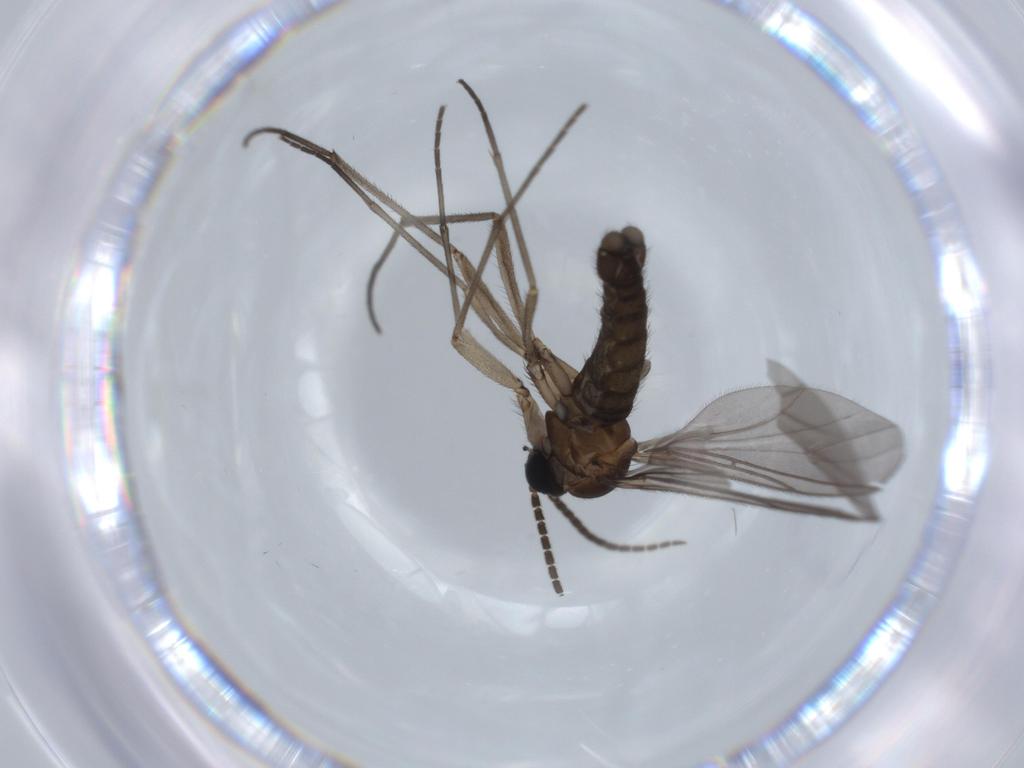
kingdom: Animalia
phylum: Arthropoda
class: Insecta
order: Diptera
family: Sciaridae
